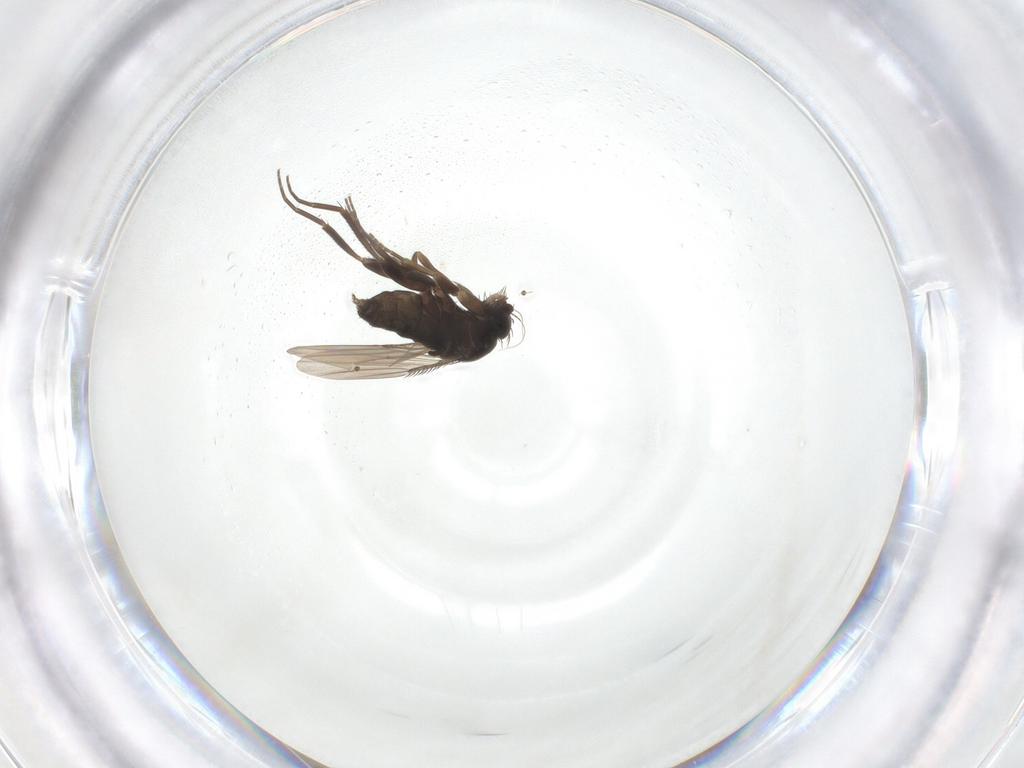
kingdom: Animalia
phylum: Arthropoda
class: Insecta
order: Diptera
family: Phoridae
